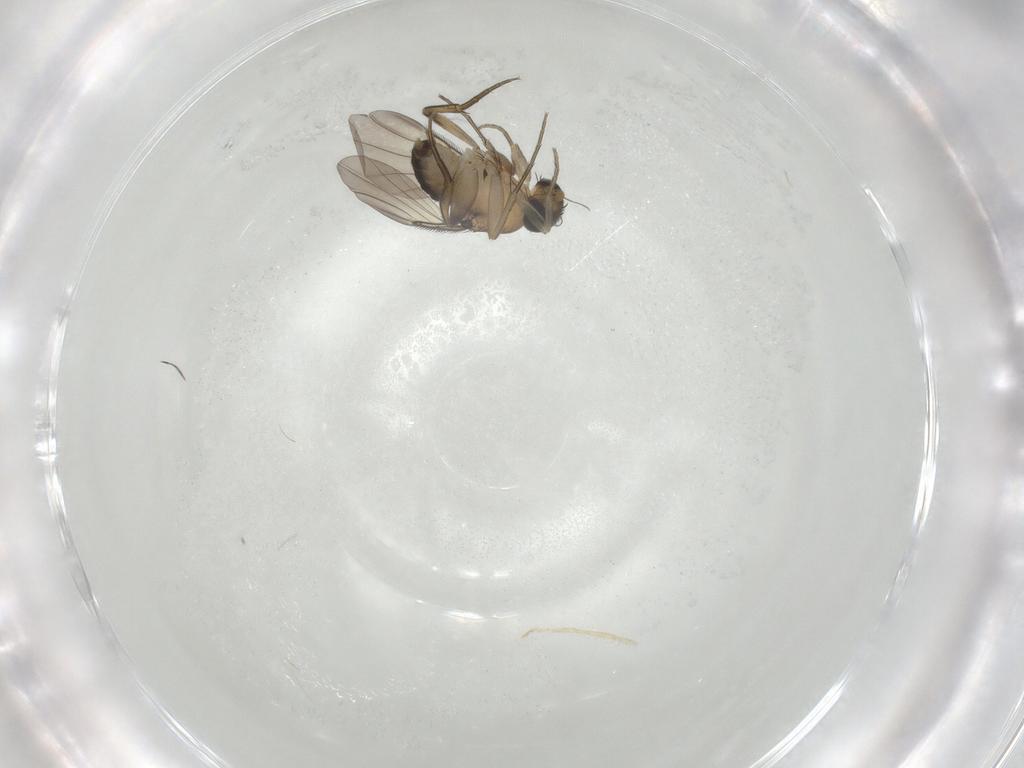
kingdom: Animalia
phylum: Arthropoda
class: Insecta
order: Diptera
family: Phoridae
